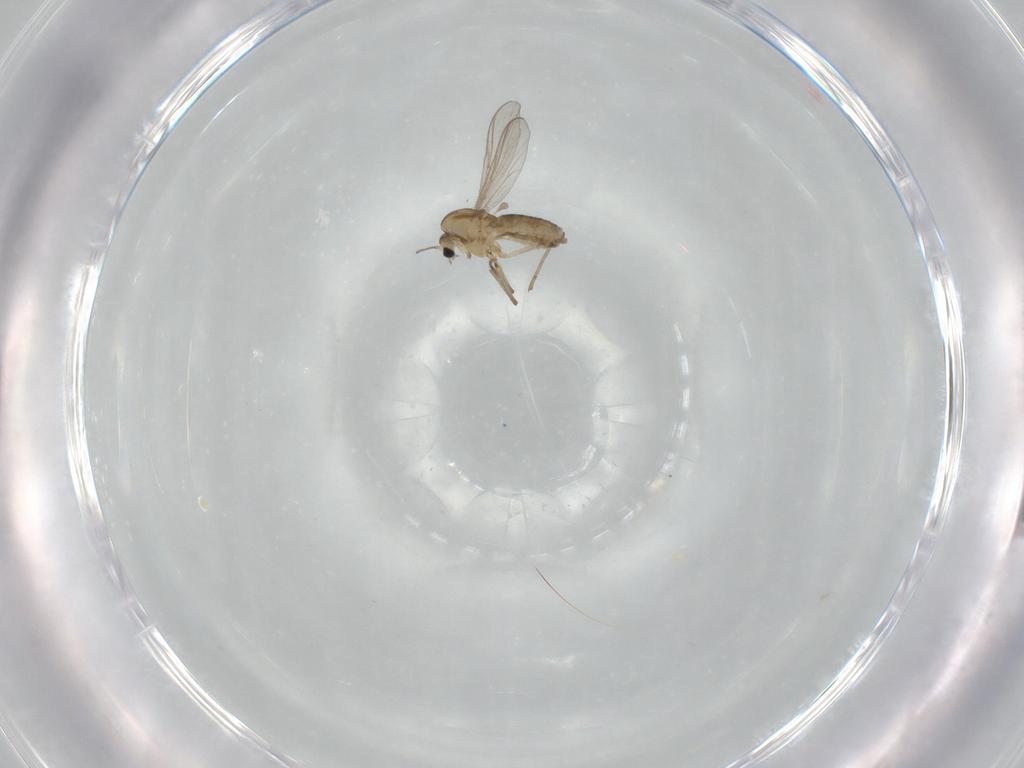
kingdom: Animalia
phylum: Arthropoda
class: Insecta
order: Diptera
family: Chironomidae
